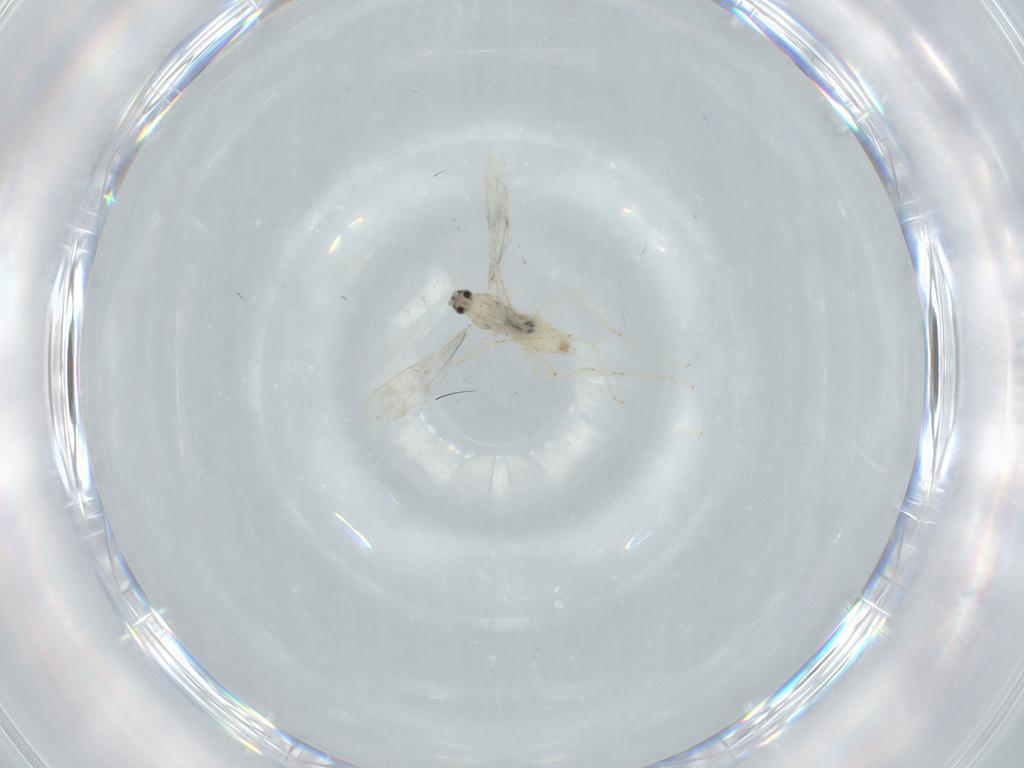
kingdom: Animalia
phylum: Arthropoda
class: Insecta
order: Diptera
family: Cecidomyiidae
